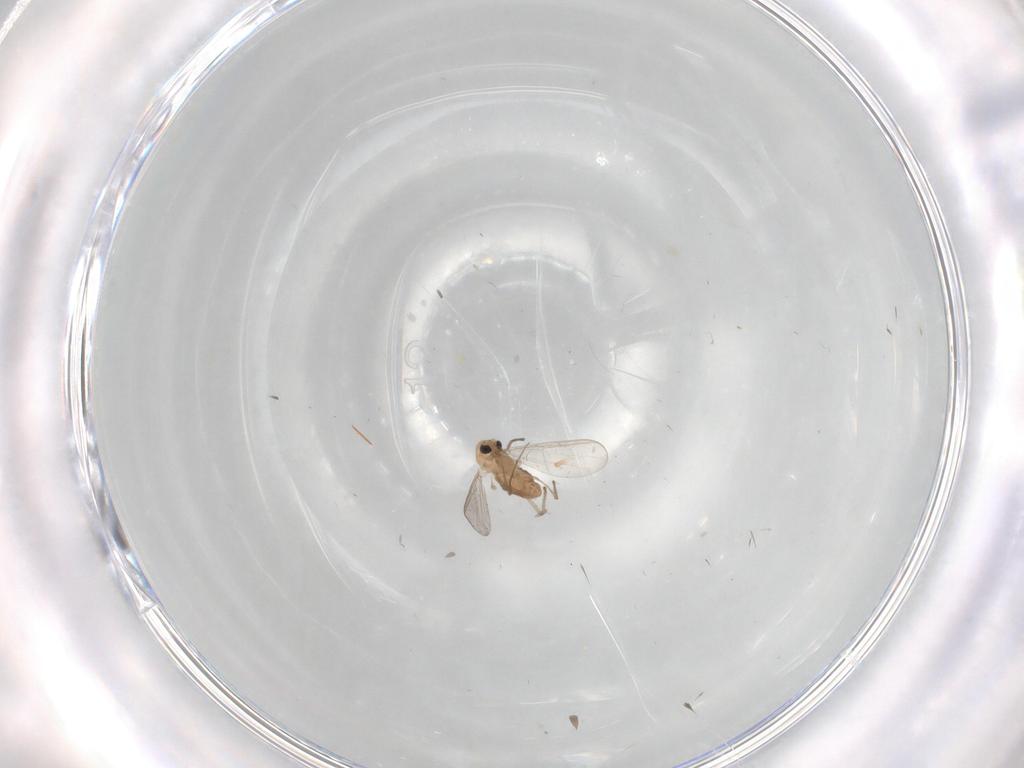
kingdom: Animalia
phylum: Arthropoda
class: Insecta
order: Diptera
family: Chironomidae
